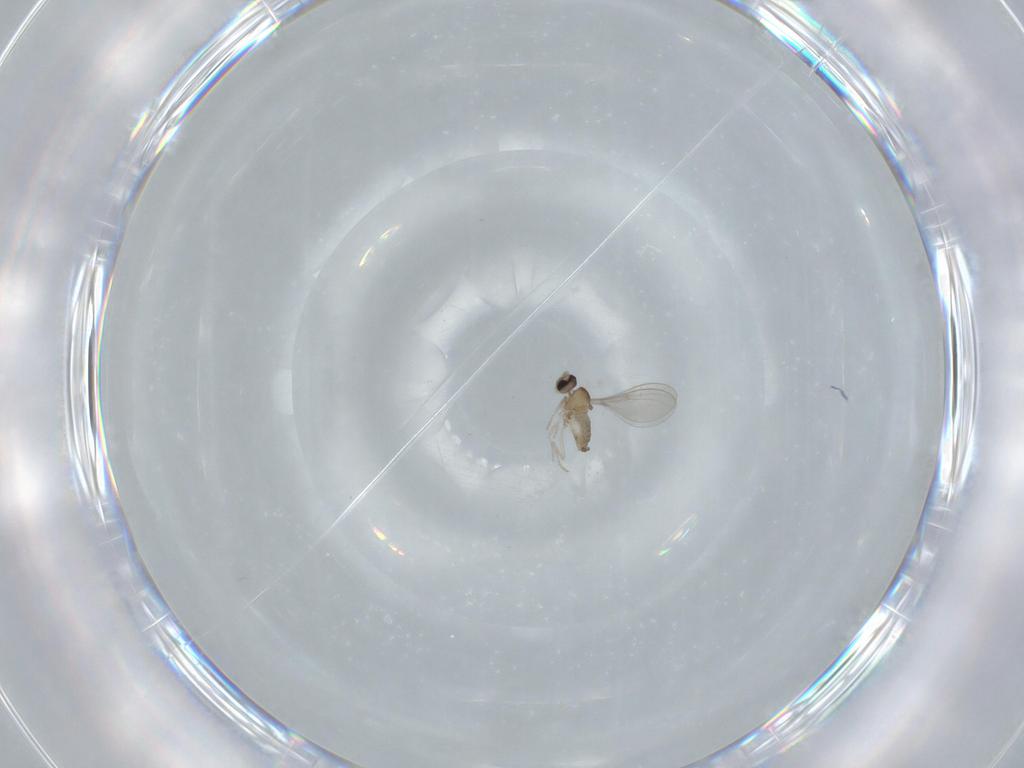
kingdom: Animalia
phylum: Arthropoda
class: Insecta
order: Diptera
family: Cecidomyiidae
